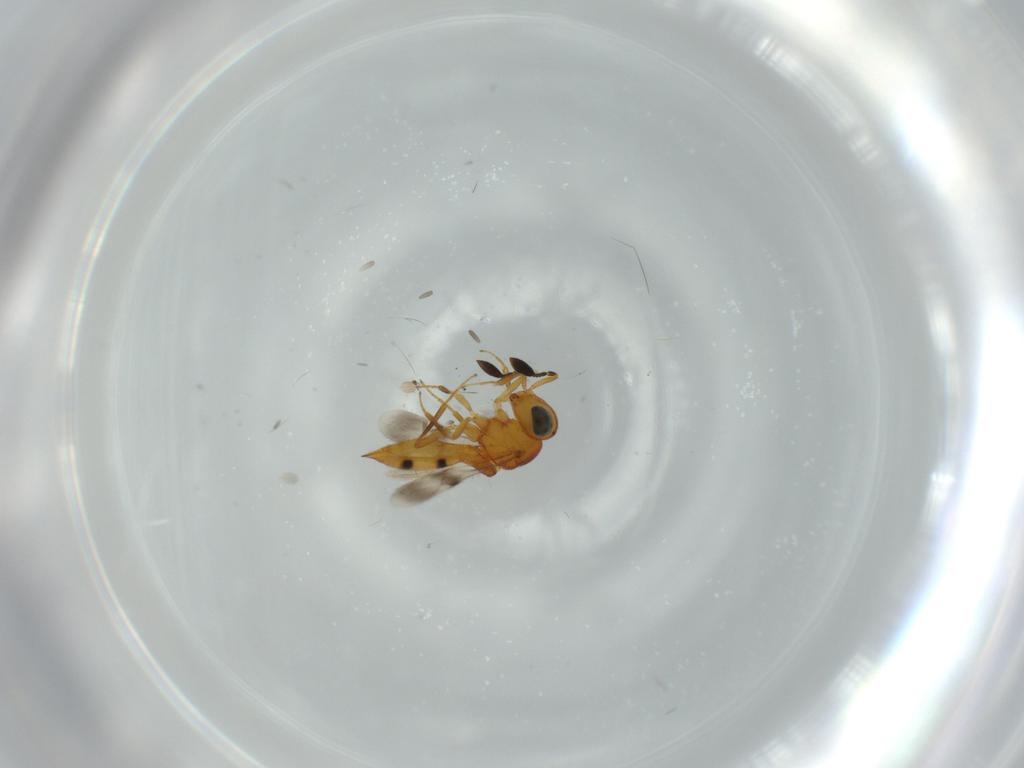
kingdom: Animalia
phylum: Arthropoda
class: Insecta
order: Hymenoptera
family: Scelionidae
